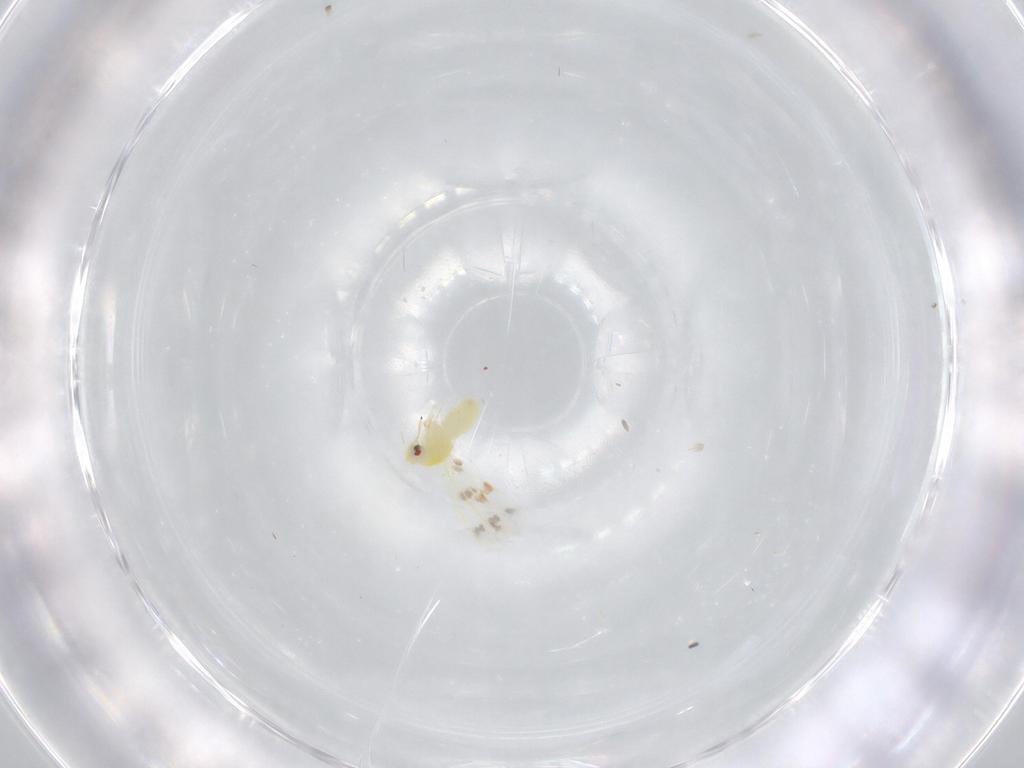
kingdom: Animalia
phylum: Arthropoda
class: Insecta
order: Hemiptera
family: Aleyrodidae
